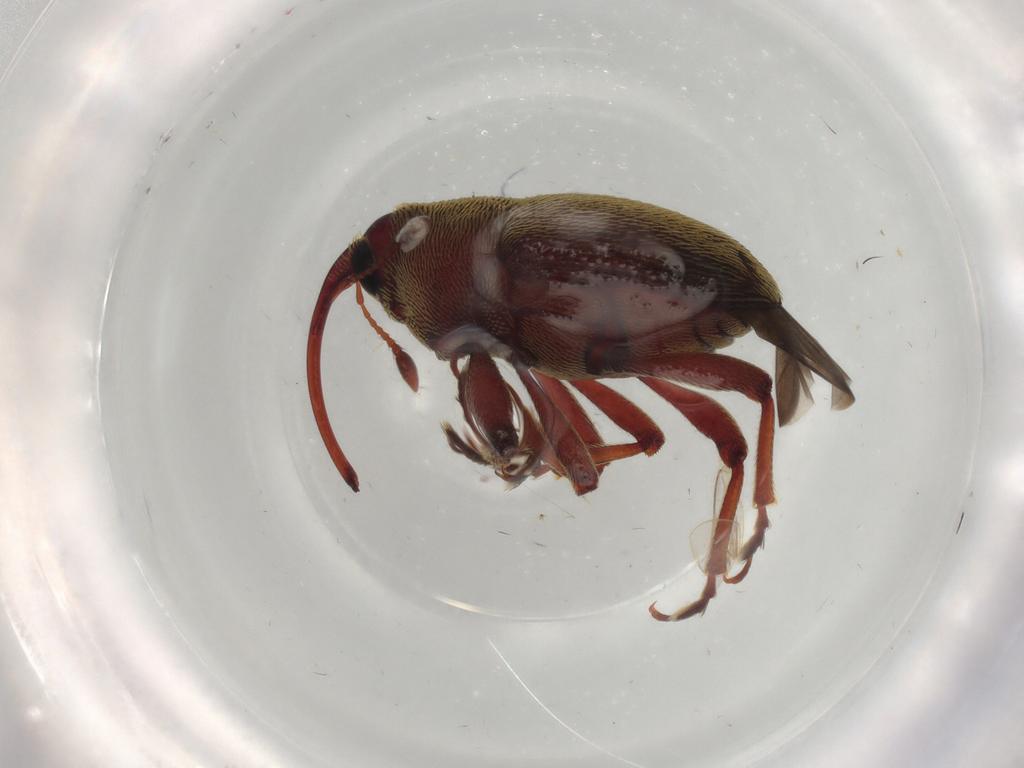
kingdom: Animalia
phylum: Arthropoda
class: Insecta
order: Coleoptera
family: Curculionidae
